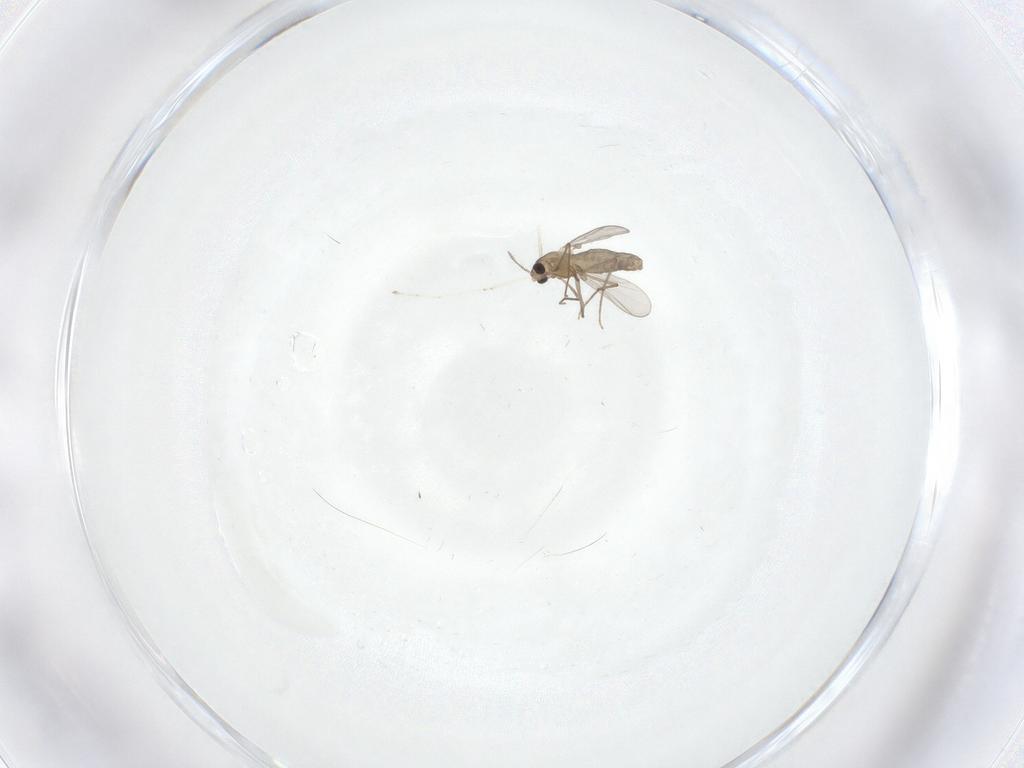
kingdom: Animalia
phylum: Arthropoda
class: Insecta
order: Diptera
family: Chironomidae
